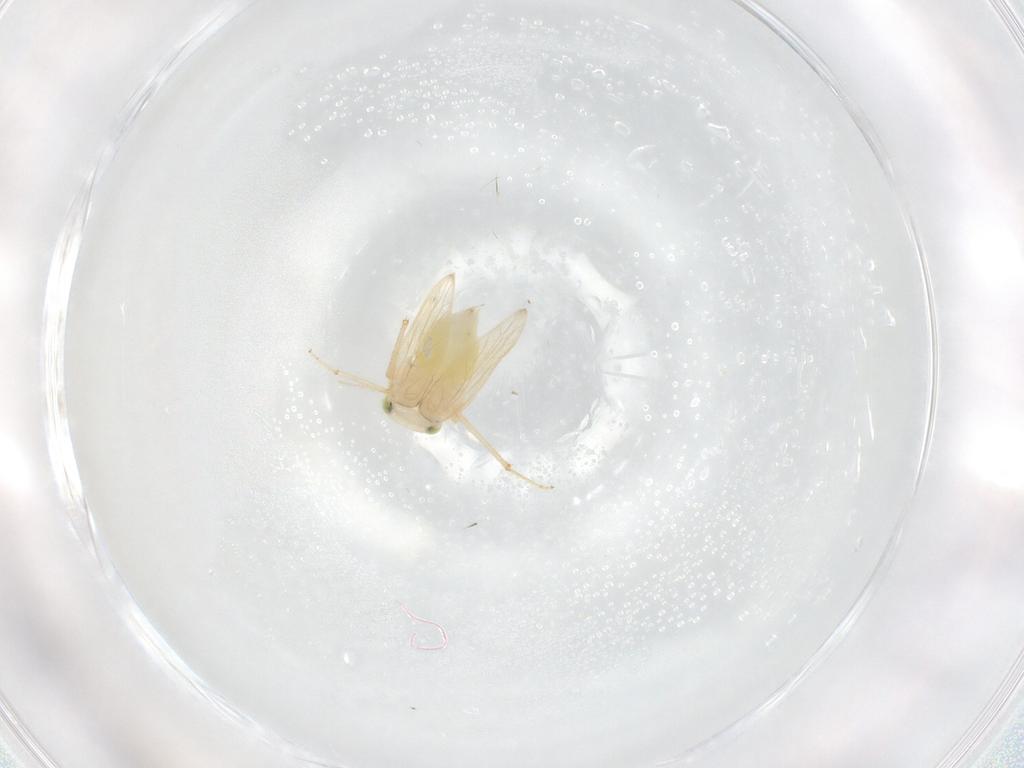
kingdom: Animalia
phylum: Arthropoda
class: Insecta
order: Psocodea
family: Lepidopsocidae
